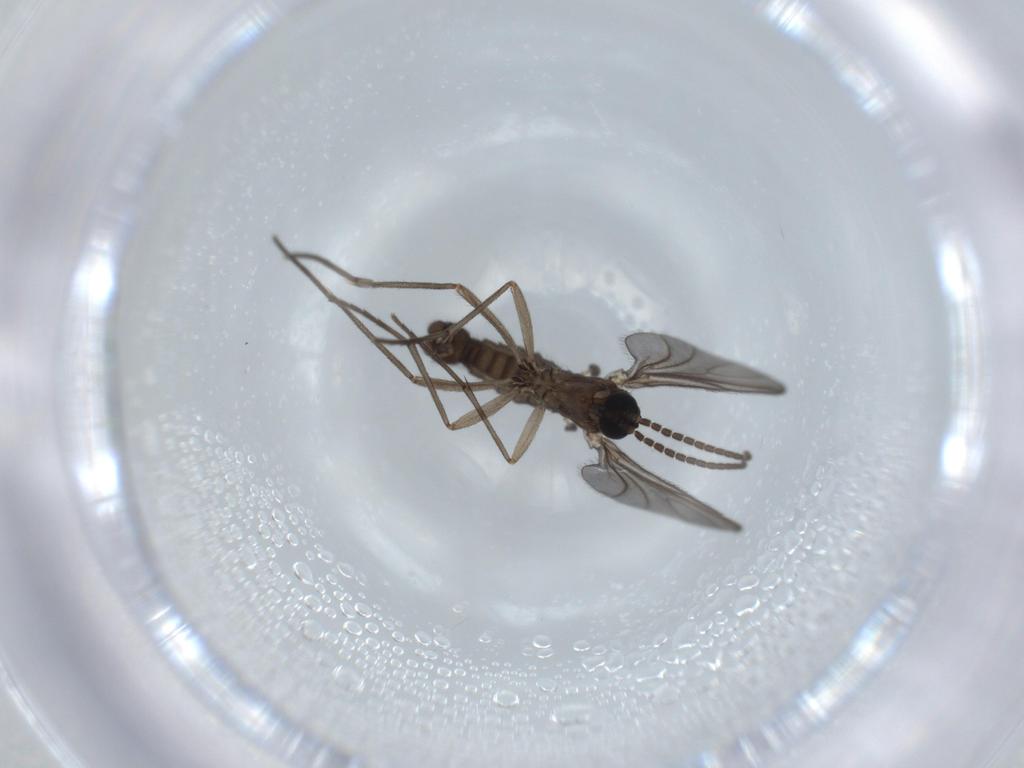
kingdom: Animalia
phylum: Arthropoda
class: Insecta
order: Diptera
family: Sciaridae
